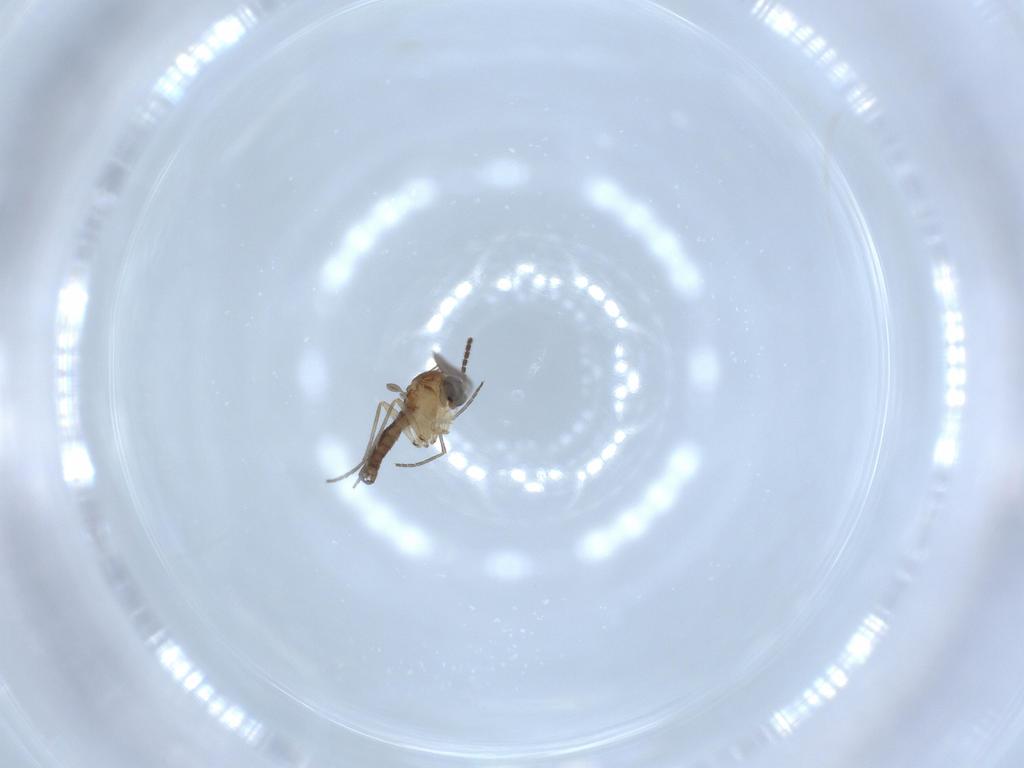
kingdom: Animalia
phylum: Arthropoda
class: Insecta
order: Diptera
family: Sciaridae
